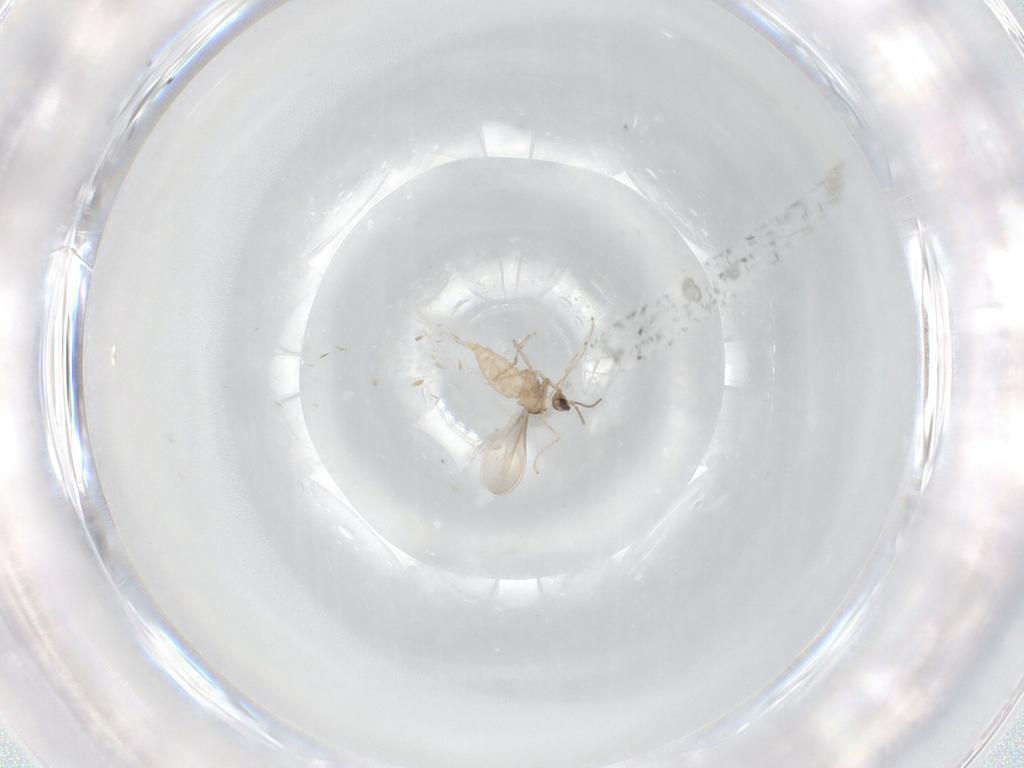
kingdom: Animalia
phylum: Arthropoda
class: Insecta
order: Diptera
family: Cecidomyiidae
